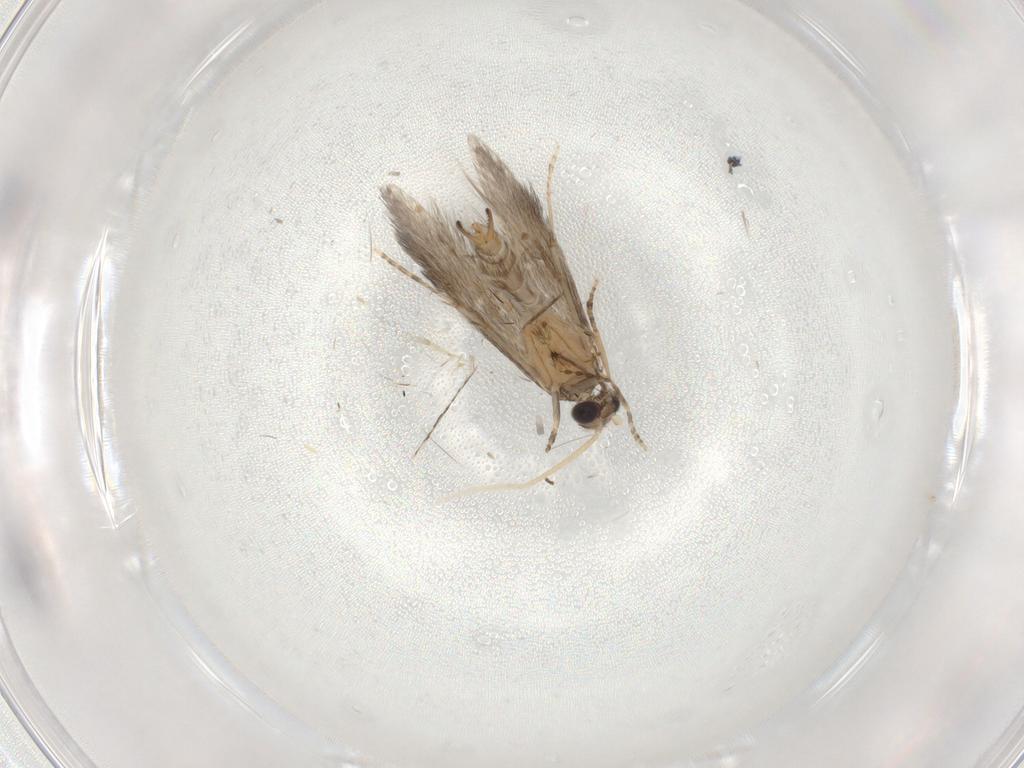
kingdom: Animalia
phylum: Arthropoda
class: Insecta
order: Trichoptera
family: Hydroptilidae
